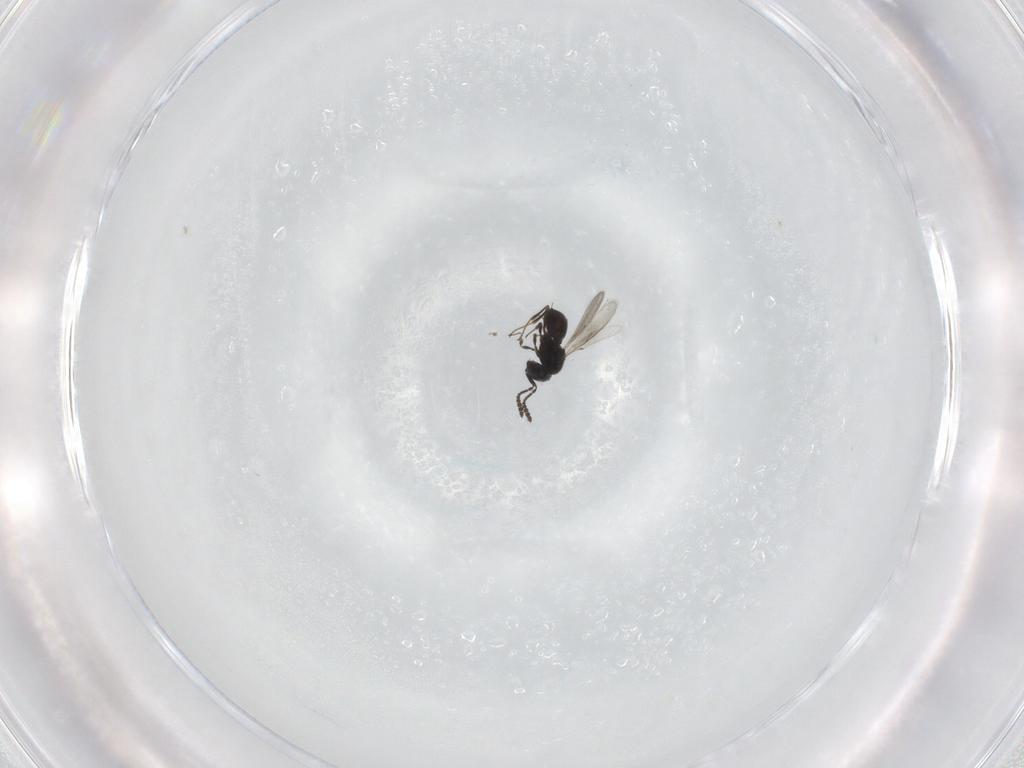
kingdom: Animalia
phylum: Arthropoda
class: Insecta
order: Hymenoptera
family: Scelionidae
